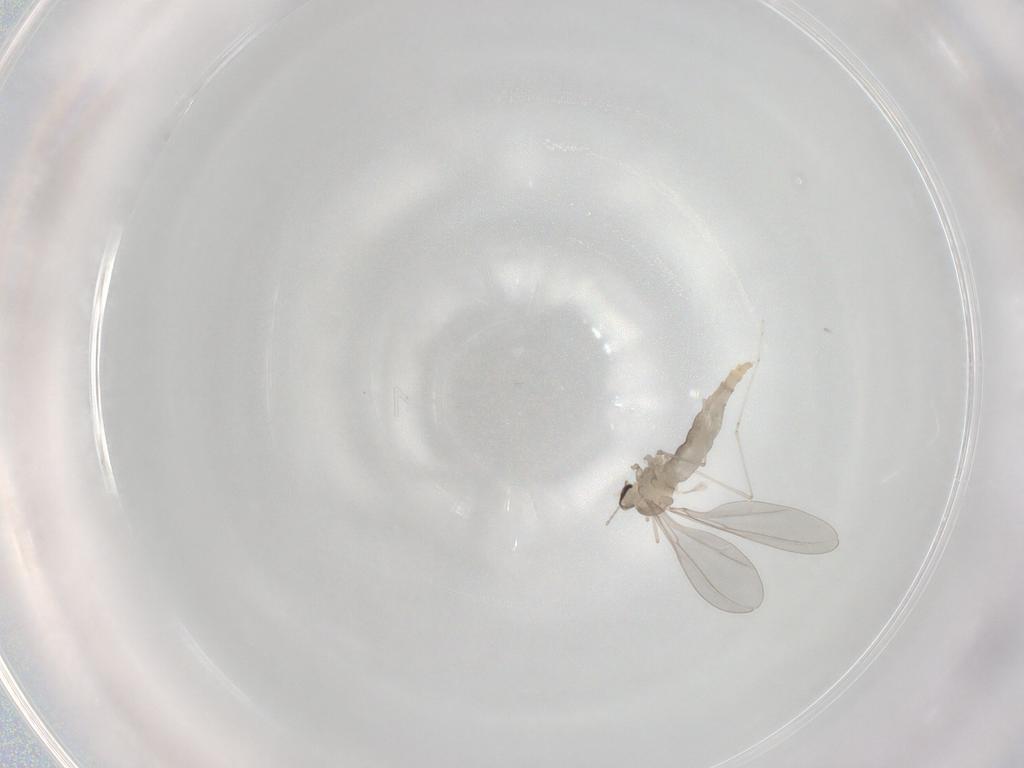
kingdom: Animalia
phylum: Arthropoda
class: Insecta
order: Diptera
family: Cecidomyiidae
